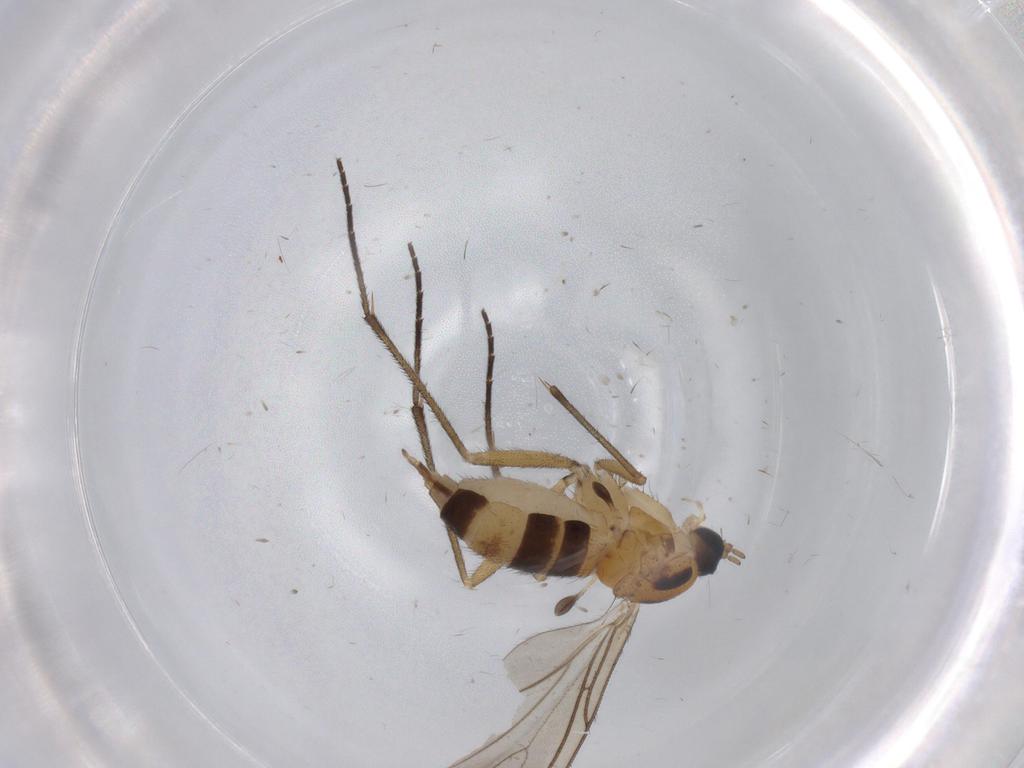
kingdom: Animalia
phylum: Arthropoda
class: Insecta
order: Diptera
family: Sciaridae
